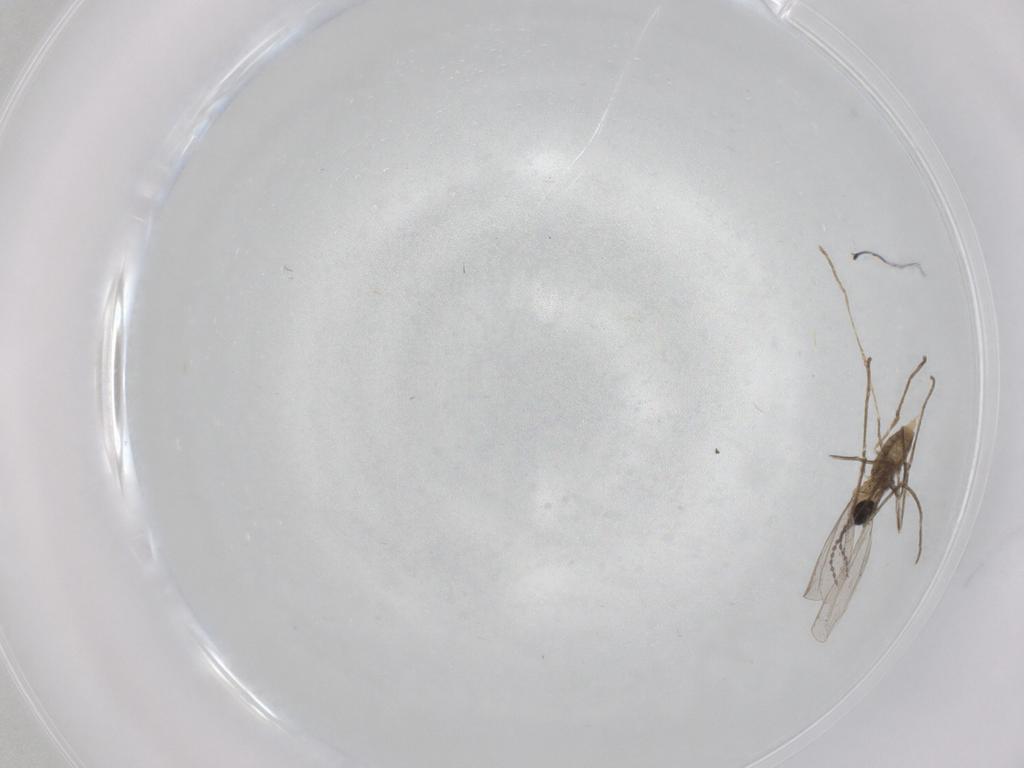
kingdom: Animalia
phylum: Arthropoda
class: Insecta
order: Diptera
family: Cecidomyiidae
